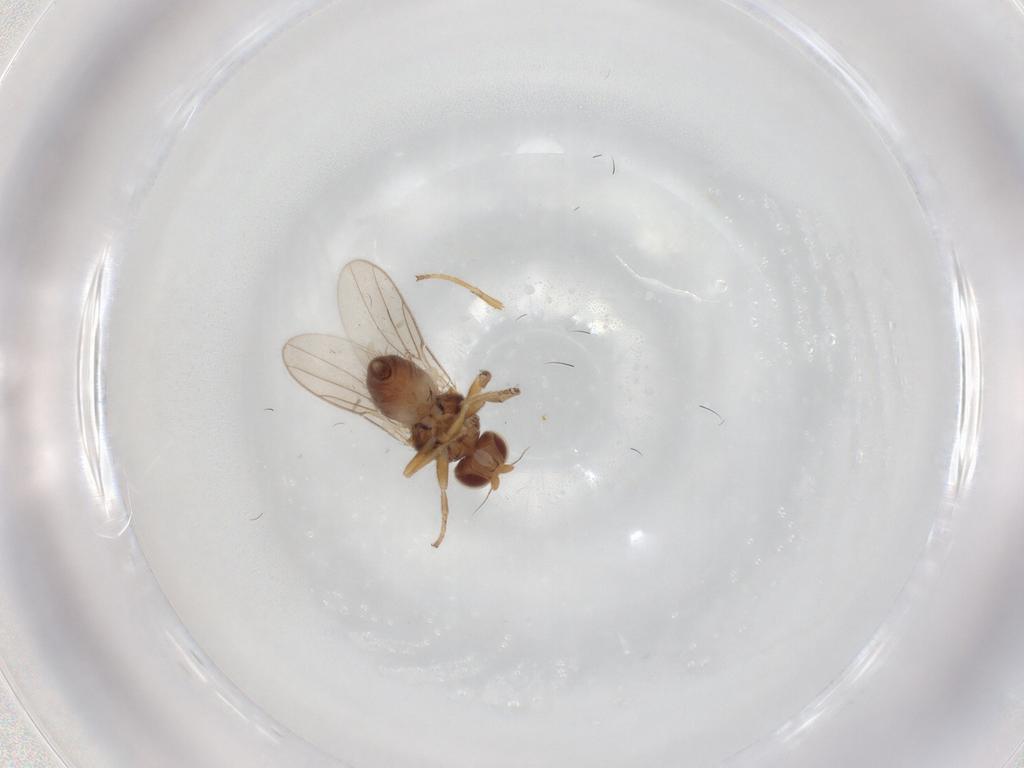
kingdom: Animalia
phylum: Arthropoda
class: Insecta
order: Diptera
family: Chloropidae
